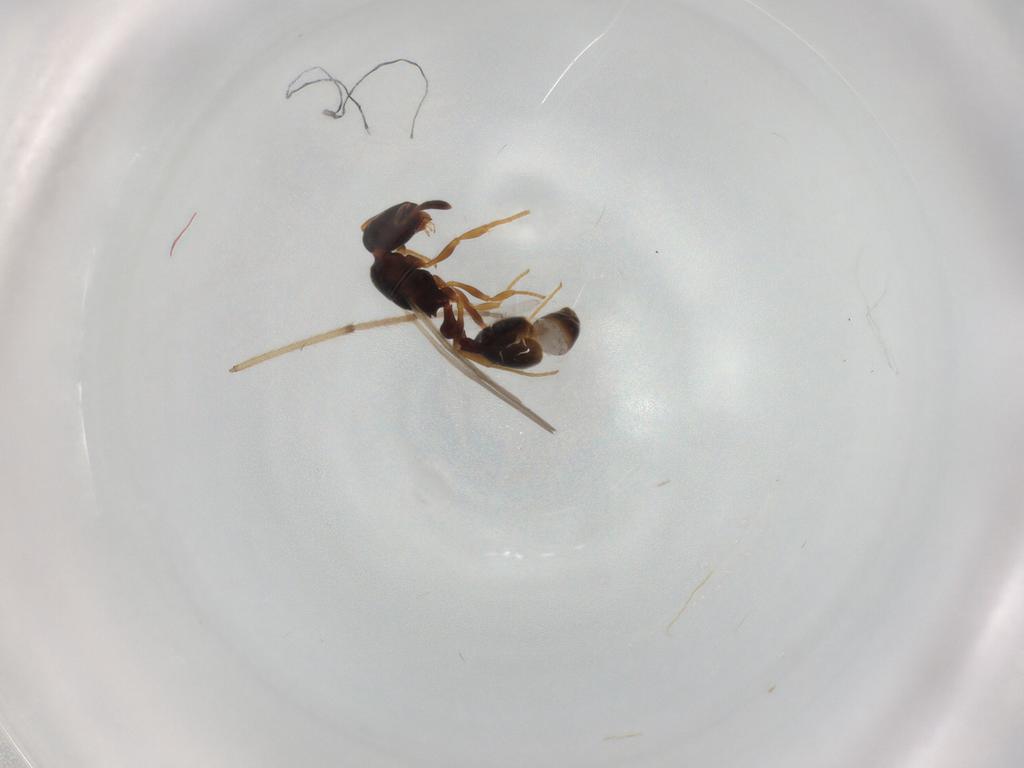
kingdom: Animalia
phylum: Arthropoda
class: Insecta
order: Hymenoptera
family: Formicidae
